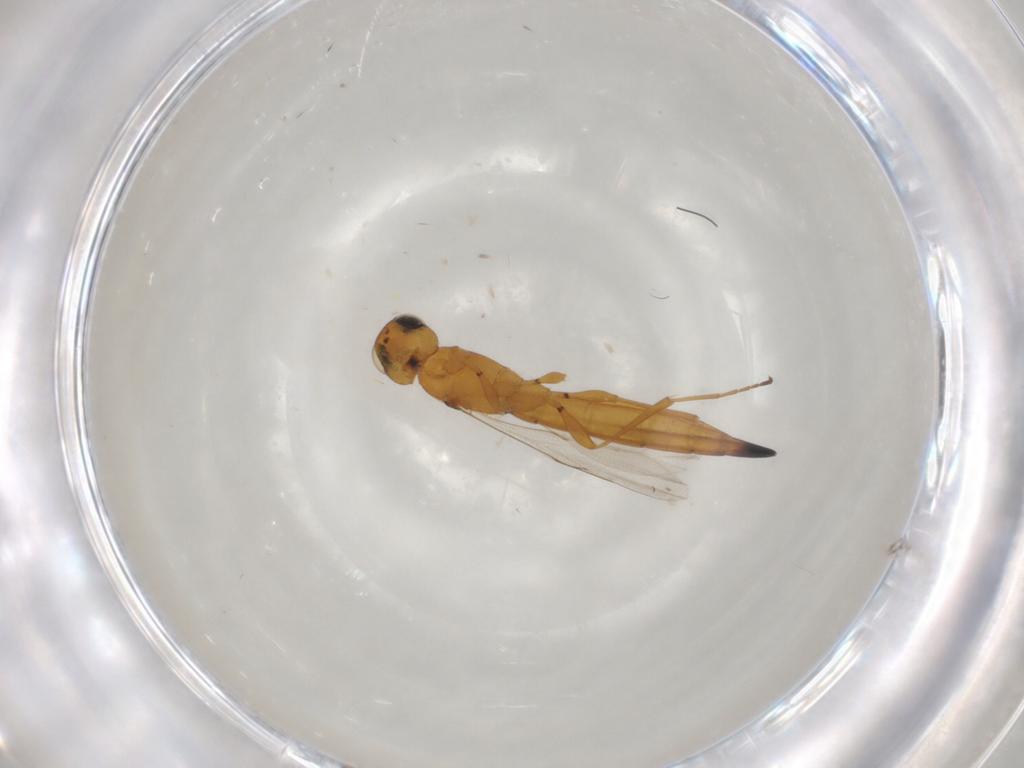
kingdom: Animalia
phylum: Arthropoda
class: Insecta
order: Hymenoptera
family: Scelionidae
